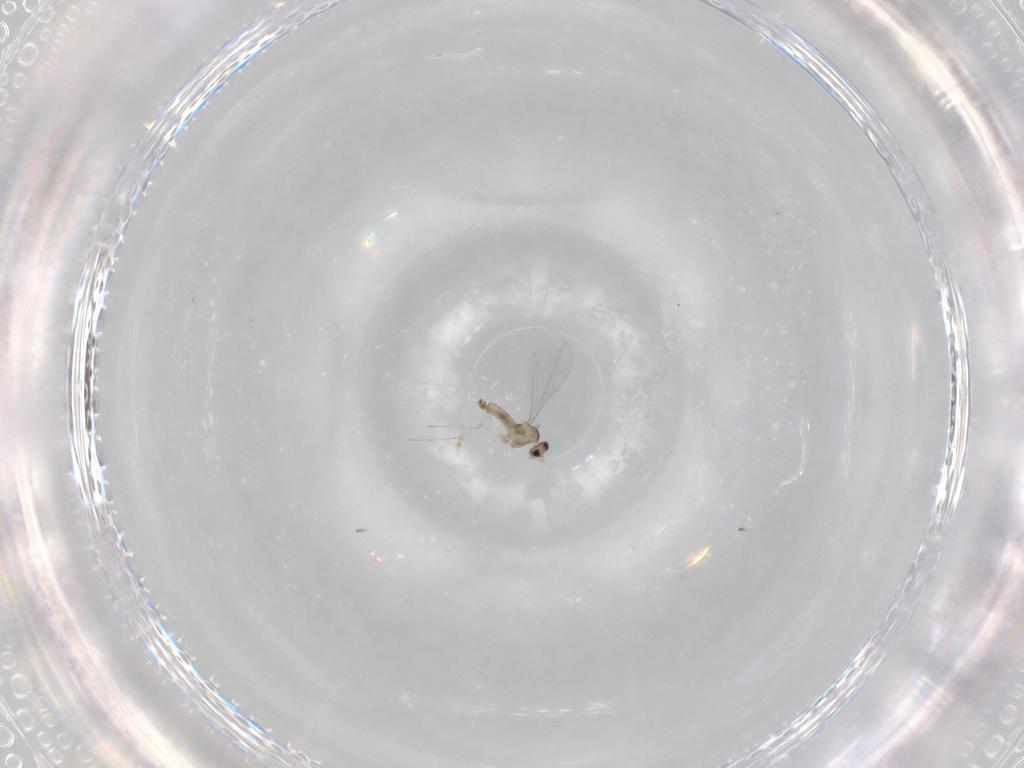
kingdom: Animalia
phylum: Arthropoda
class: Insecta
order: Diptera
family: Cecidomyiidae
